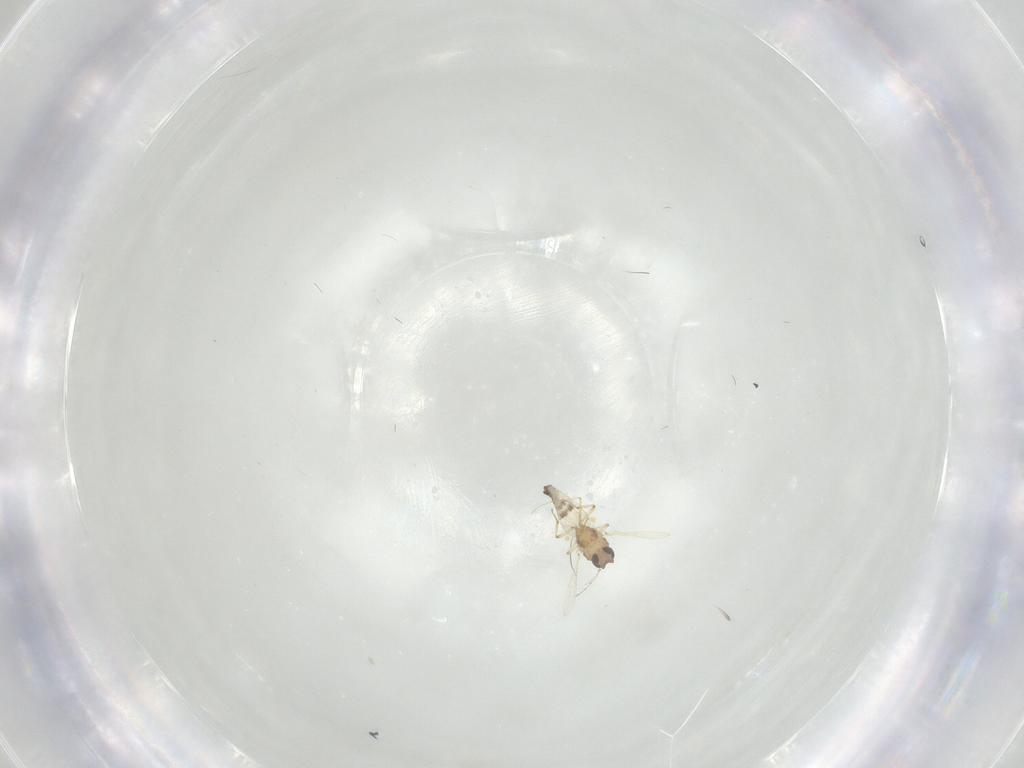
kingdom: Animalia
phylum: Arthropoda
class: Insecta
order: Diptera
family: Ceratopogonidae
